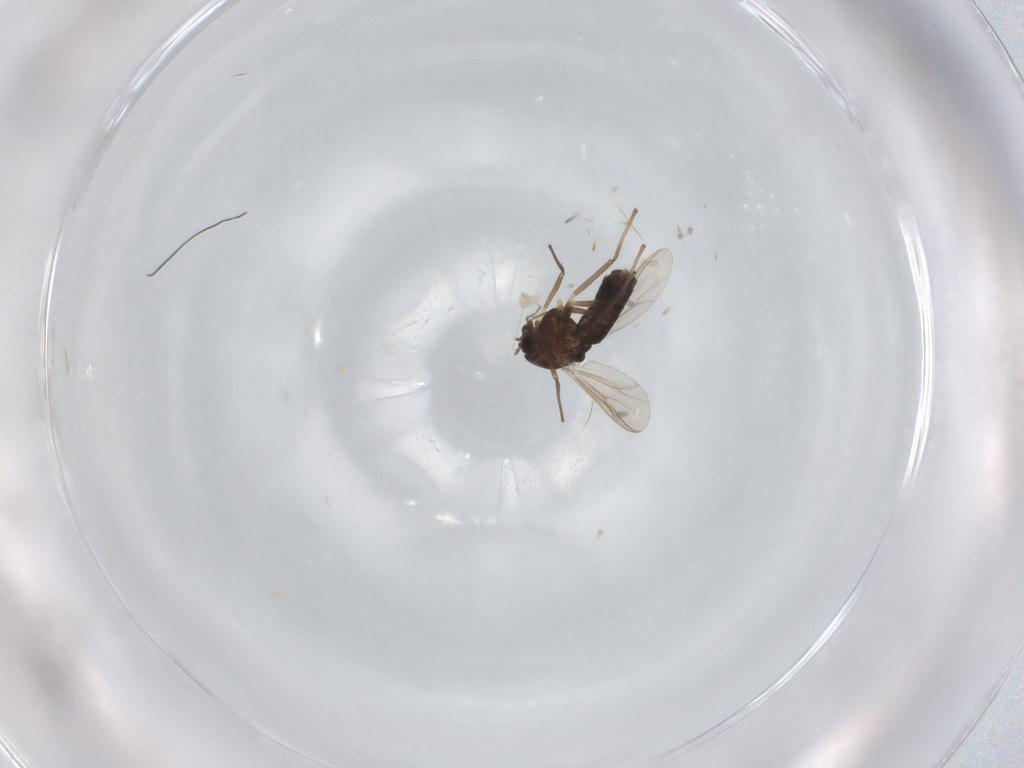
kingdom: Animalia
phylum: Arthropoda
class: Insecta
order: Diptera
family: Chironomidae
